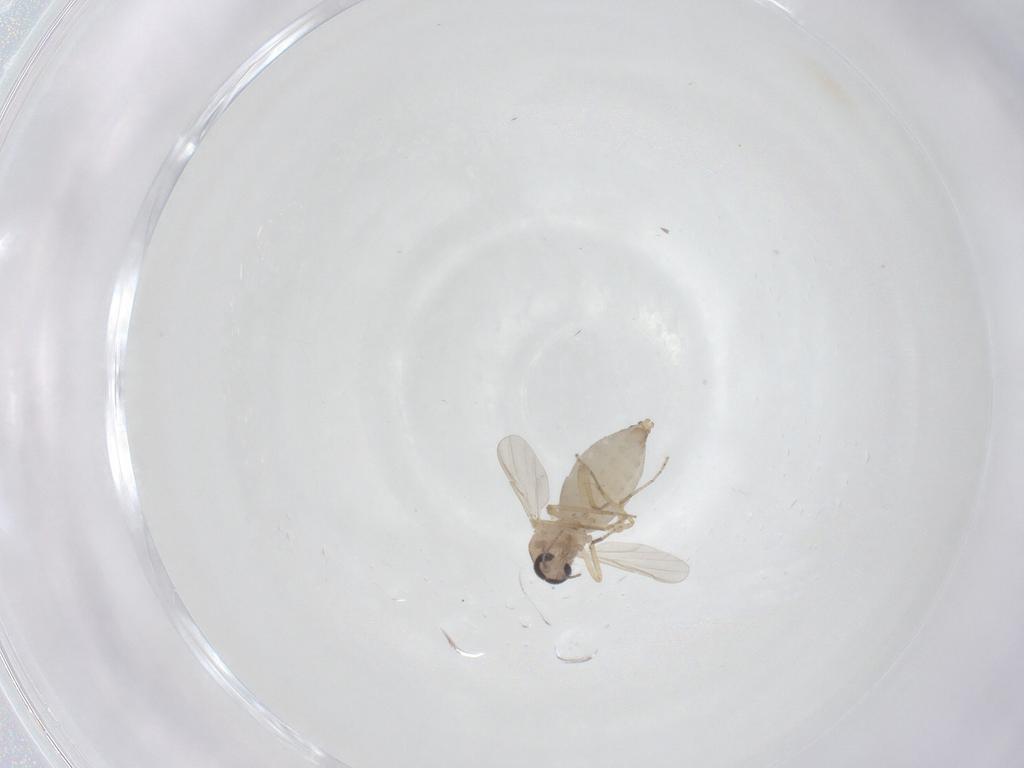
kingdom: Animalia
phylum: Arthropoda
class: Insecta
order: Diptera
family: Ceratopogonidae
